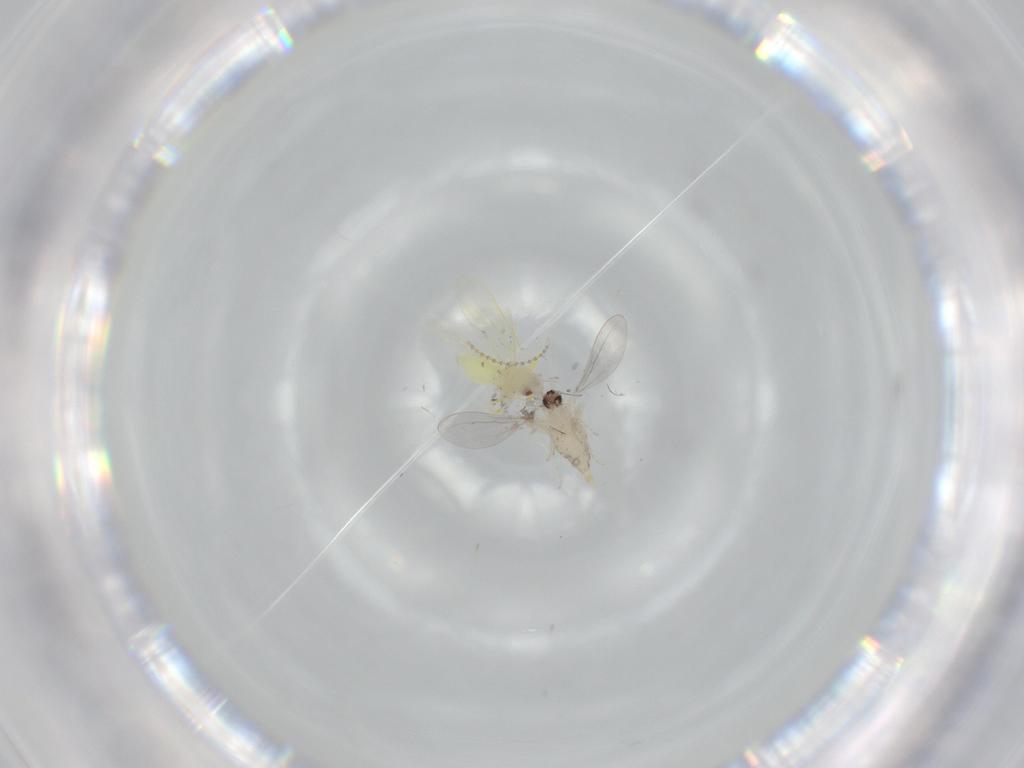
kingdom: Animalia
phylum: Arthropoda
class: Insecta
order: Diptera
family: Cecidomyiidae
